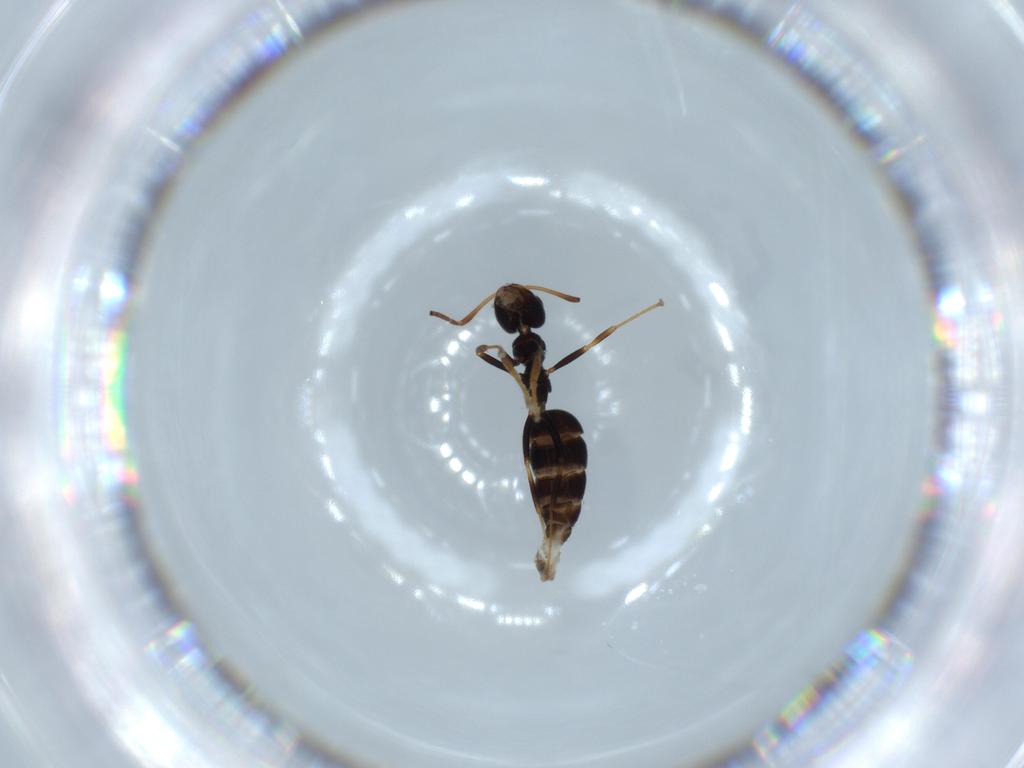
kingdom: Animalia
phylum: Arthropoda
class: Insecta
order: Hymenoptera
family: Formicidae
